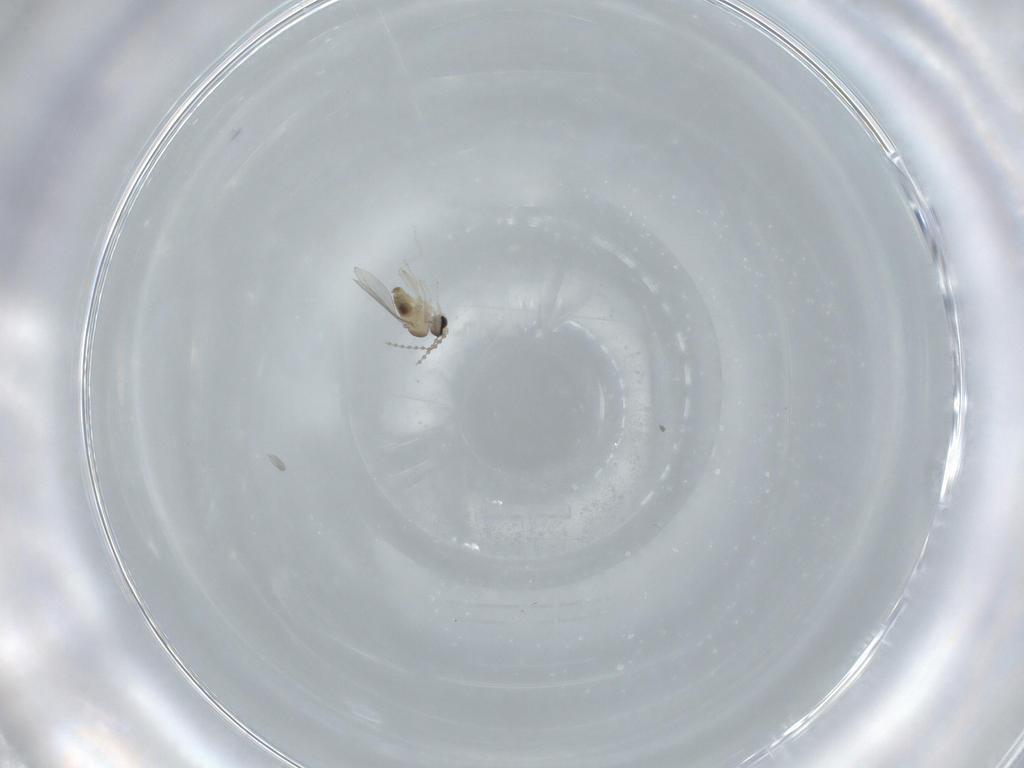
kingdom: Animalia
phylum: Arthropoda
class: Insecta
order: Diptera
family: Cecidomyiidae
